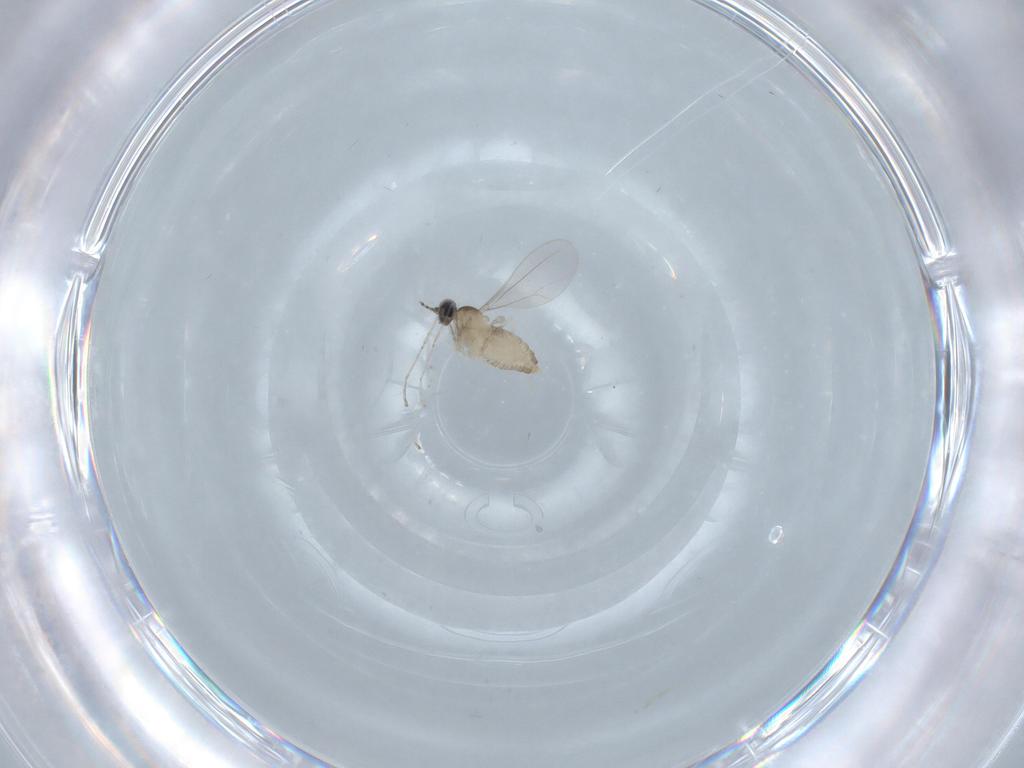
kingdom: Animalia
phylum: Arthropoda
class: Insecta
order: Diptera
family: Cecidomyiidae
